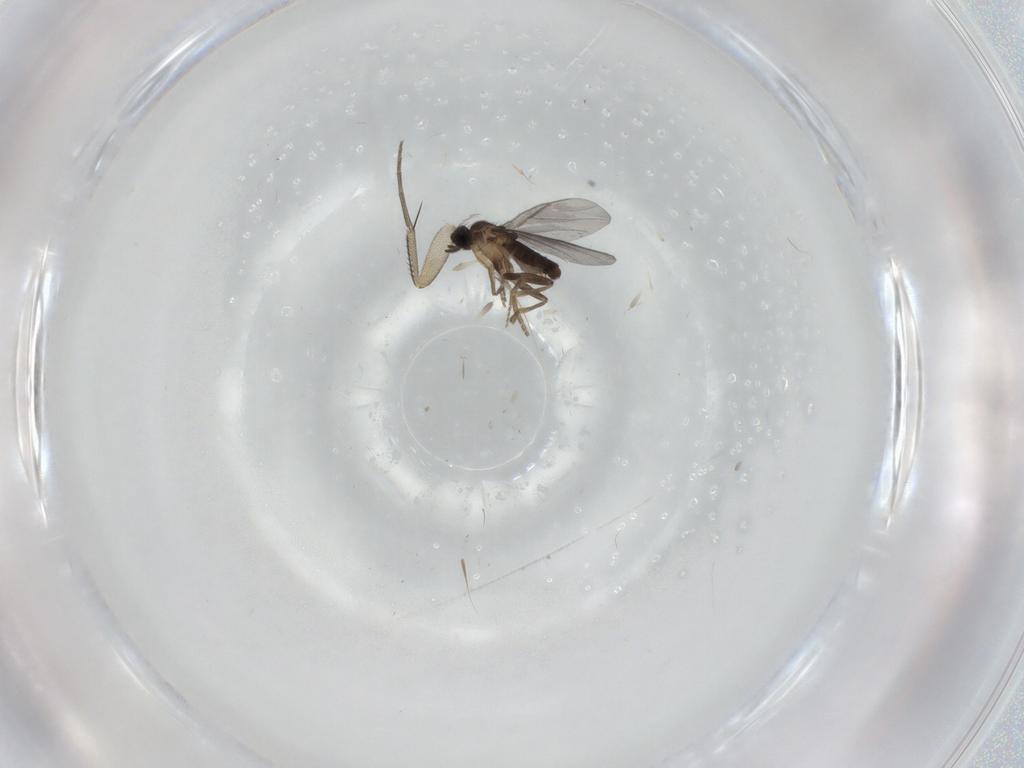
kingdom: Animalia
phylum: Arthropoda
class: Insecta
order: Diptera
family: Phoridae
